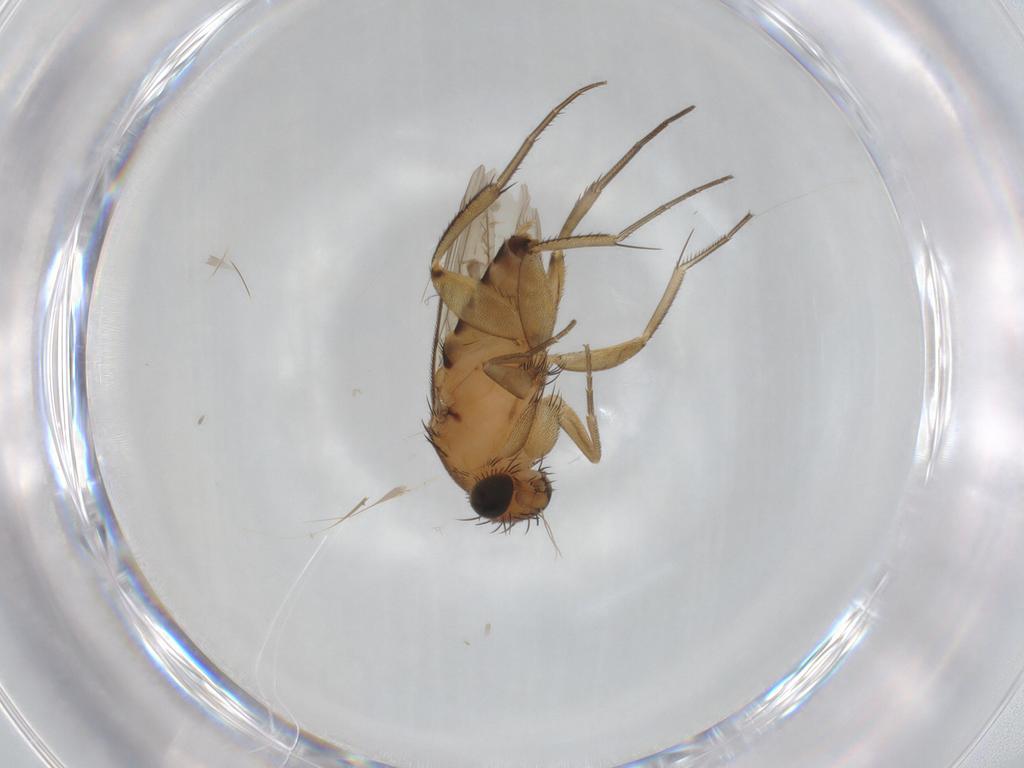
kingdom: Animalia
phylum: Arthropoda
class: Insecta
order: Diptera
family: Phoridae
